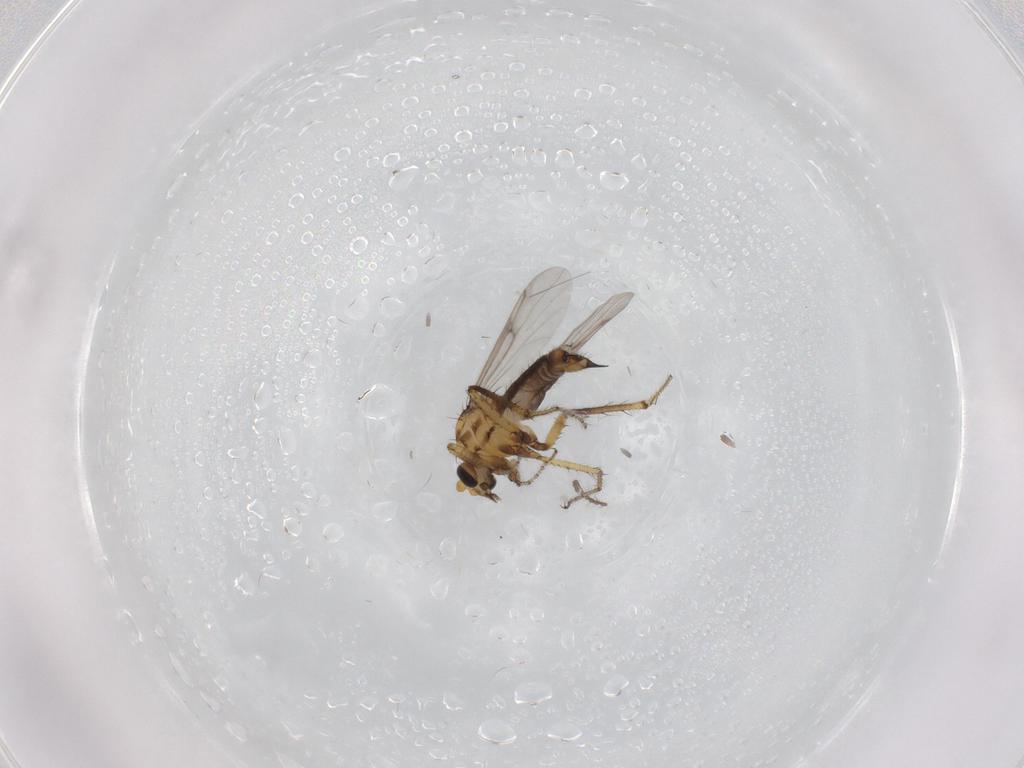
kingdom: Animalia
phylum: Arthropoda
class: Insecta
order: Diptera
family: Ceratopogonidae
